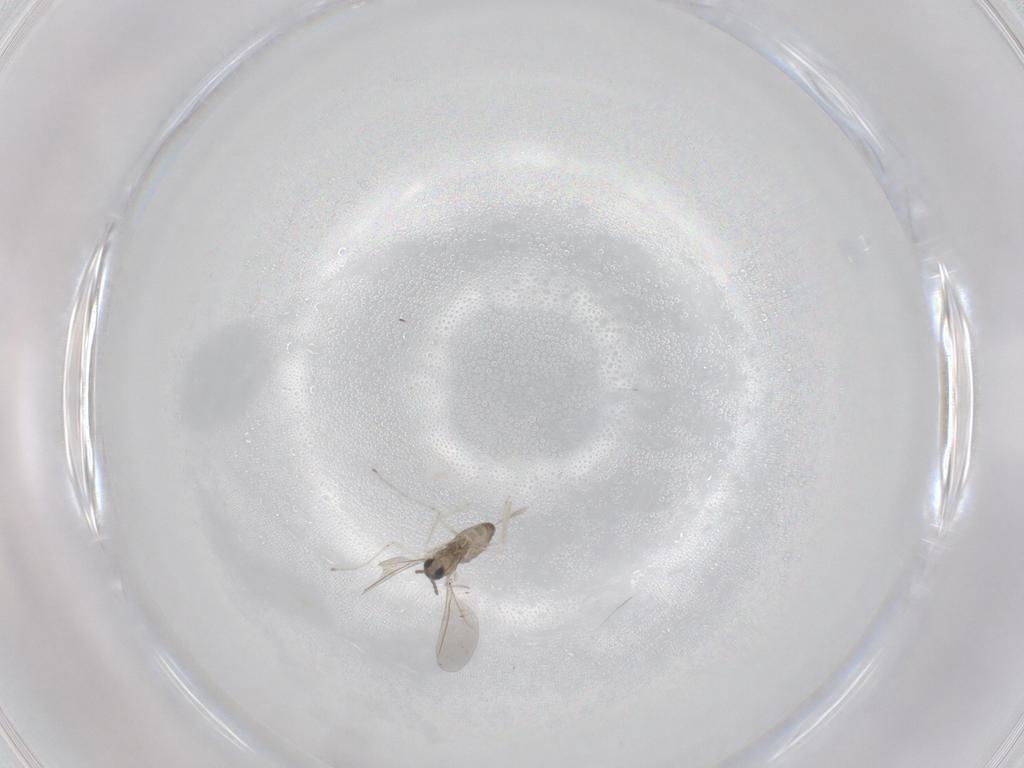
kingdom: Animalia
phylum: Arthropoda
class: Insecta
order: Diptera
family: Cecidomyiidae
